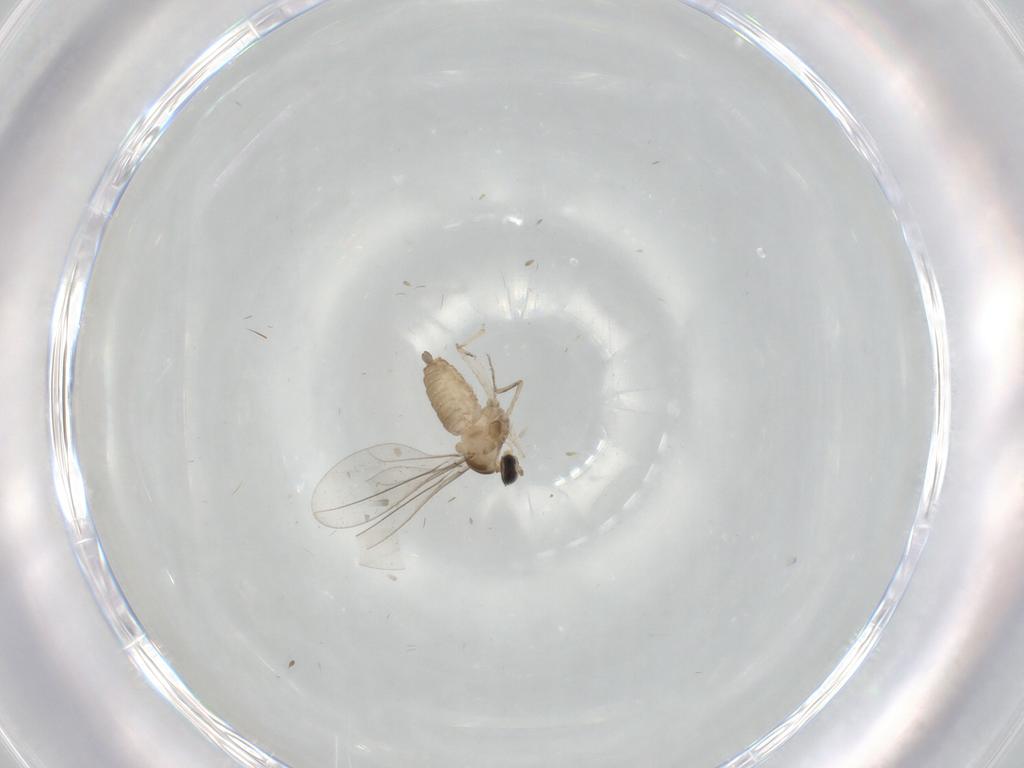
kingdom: Animalia
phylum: Arthropoda
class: Insecta
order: Diptera
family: Cecidomyiidae
